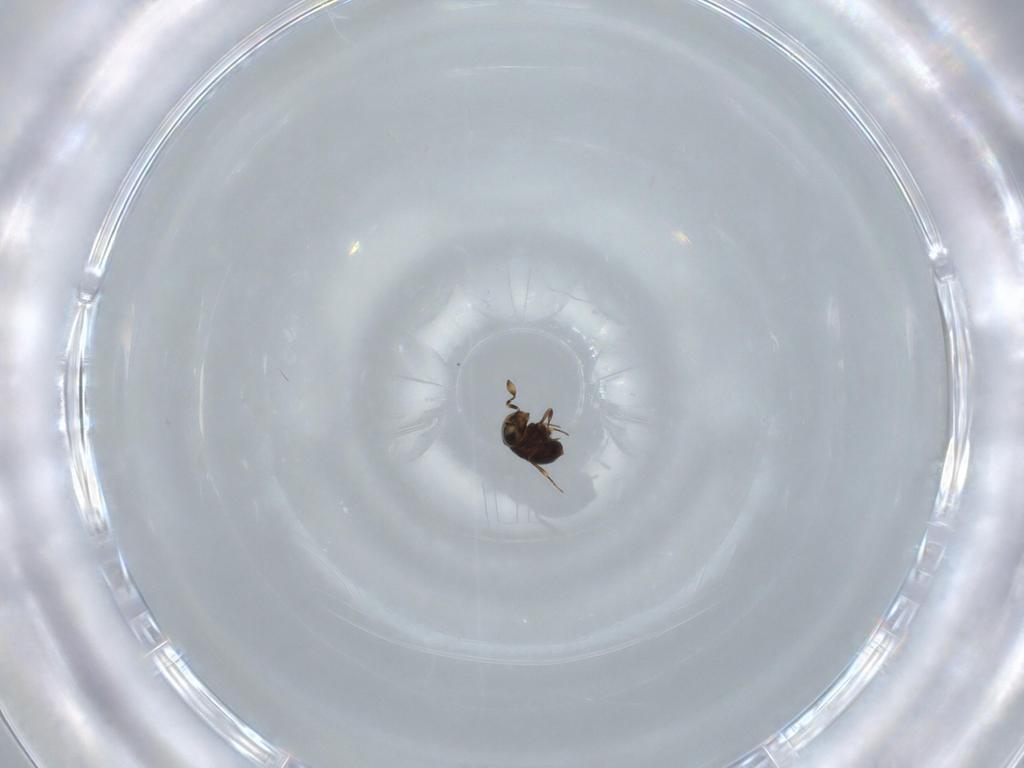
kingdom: Animalia
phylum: Arthropoda
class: Insecta
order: Hymenoptera
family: Scelionidae
